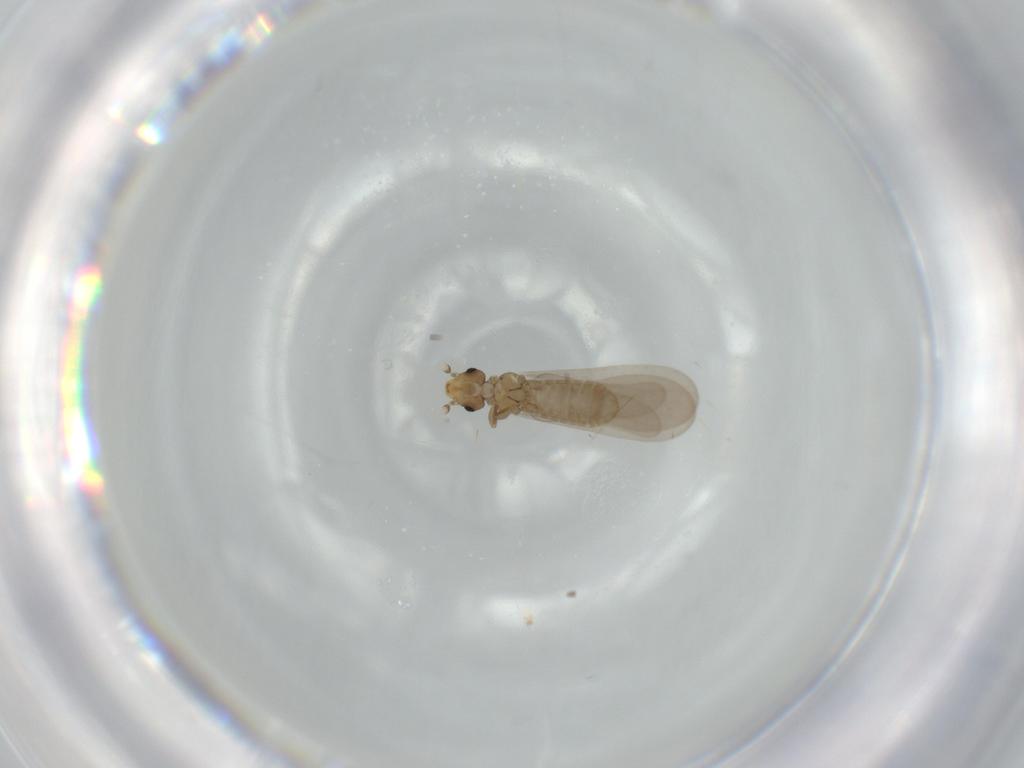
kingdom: Animalia
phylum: Arthropoda
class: Insecta
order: Psocodea
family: Liposcelididae
